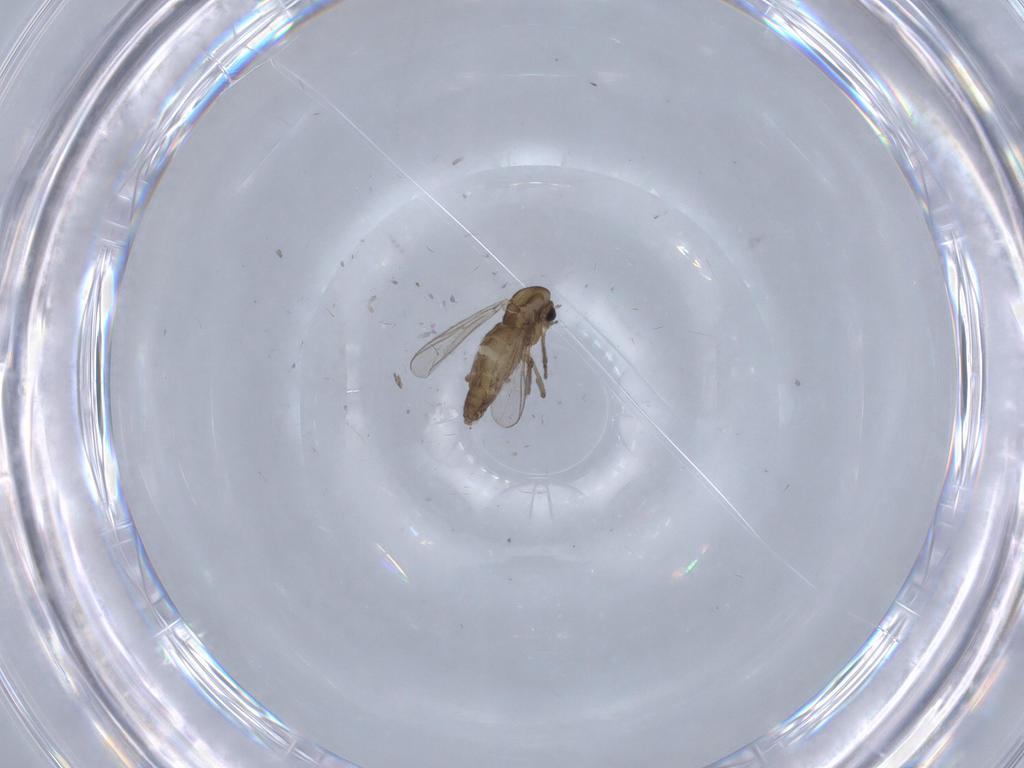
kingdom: Animalia
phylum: Arthropoda
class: Insecta
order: Diptera
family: Chironomidae
